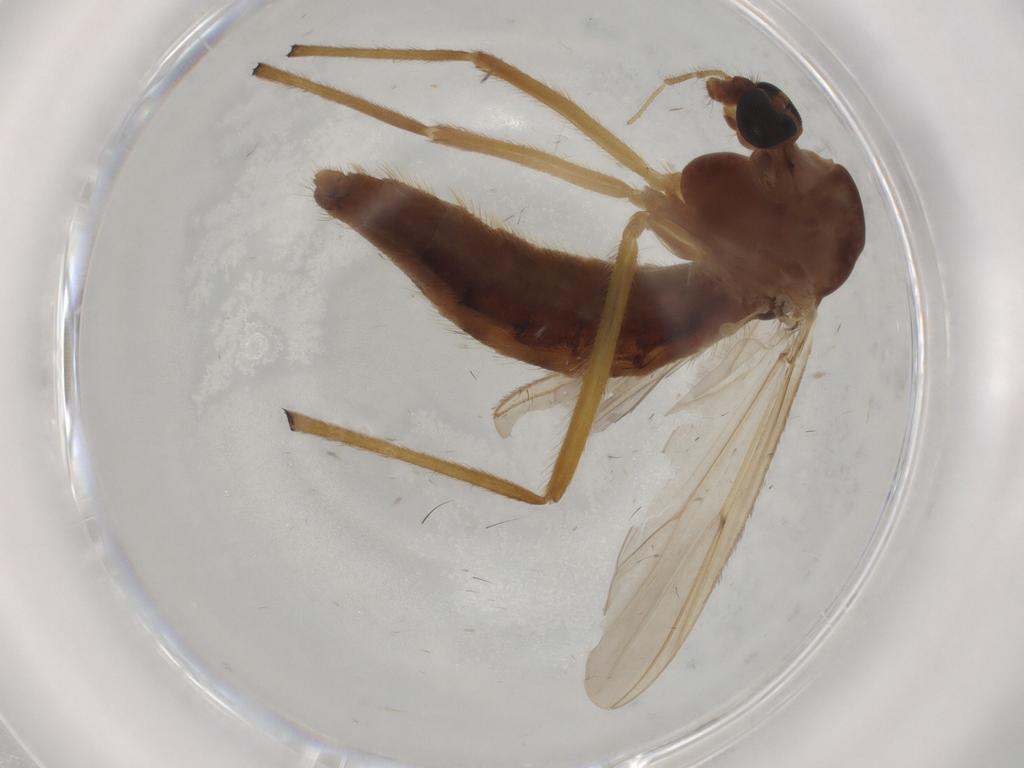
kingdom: Animalia
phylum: Arthropoda
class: Insecta
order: Diptera
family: Chironomidae
